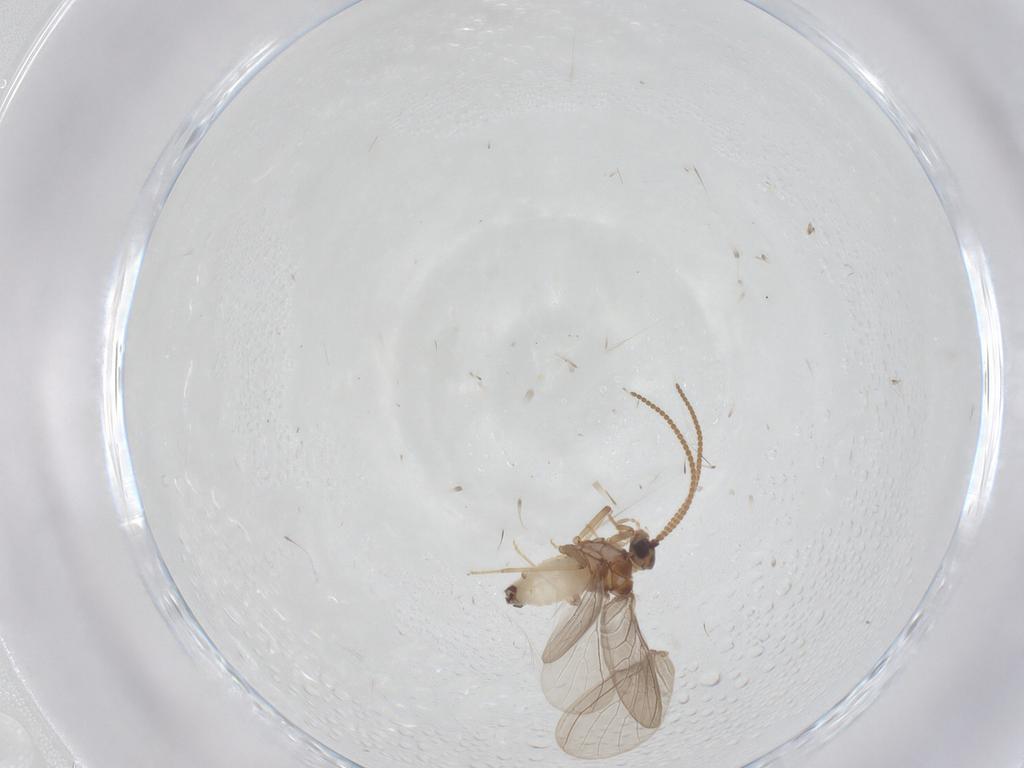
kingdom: Animalia
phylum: Arthropoda
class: Insecta
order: Neuroptera
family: Coniopterygidae
